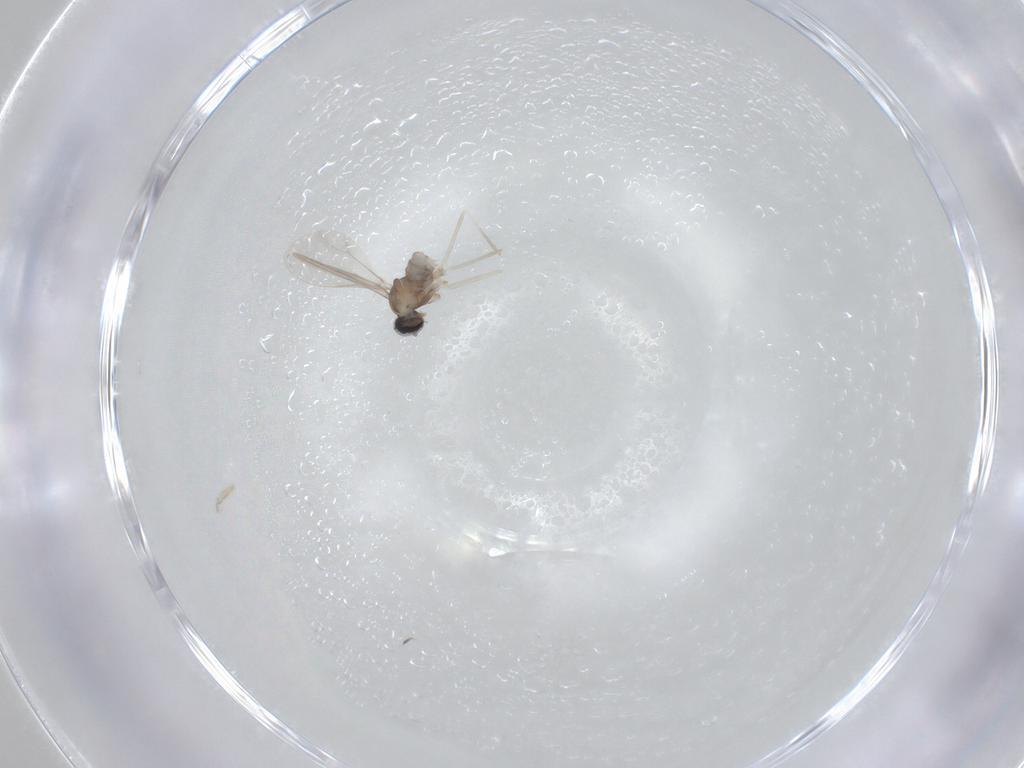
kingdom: Animalia
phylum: Arthropoda
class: Insecta
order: Diptera
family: Cecidomyiidae
